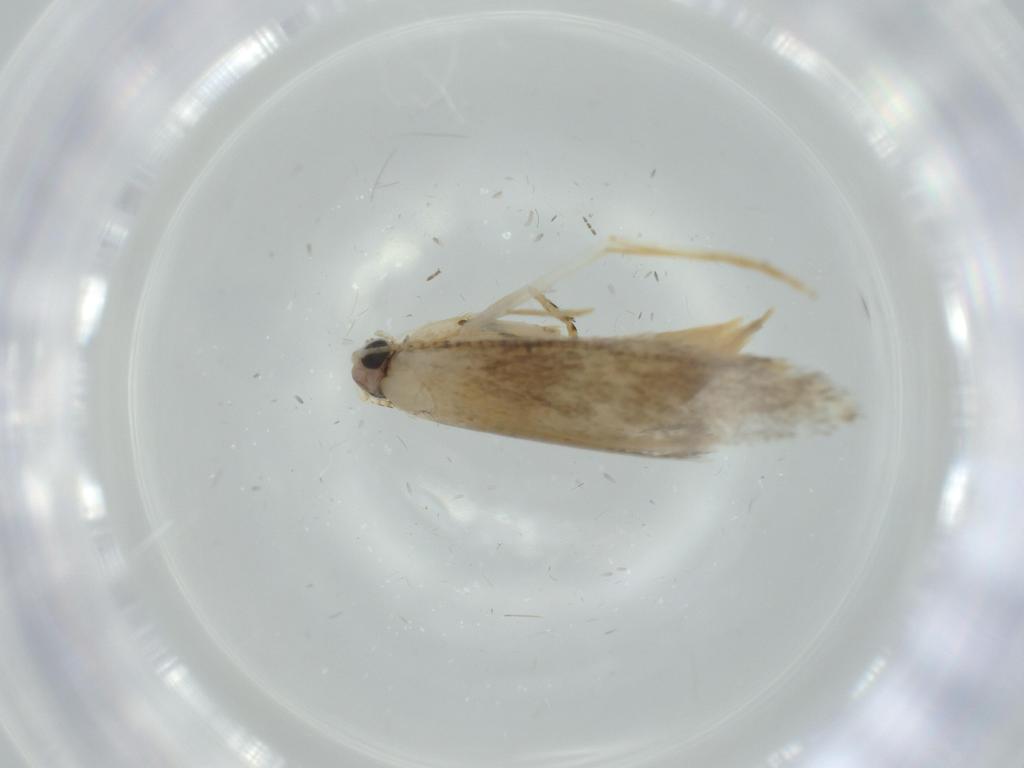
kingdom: Animalia
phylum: Arthropoda
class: Insecta
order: Lepidoptera
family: Tineidae
